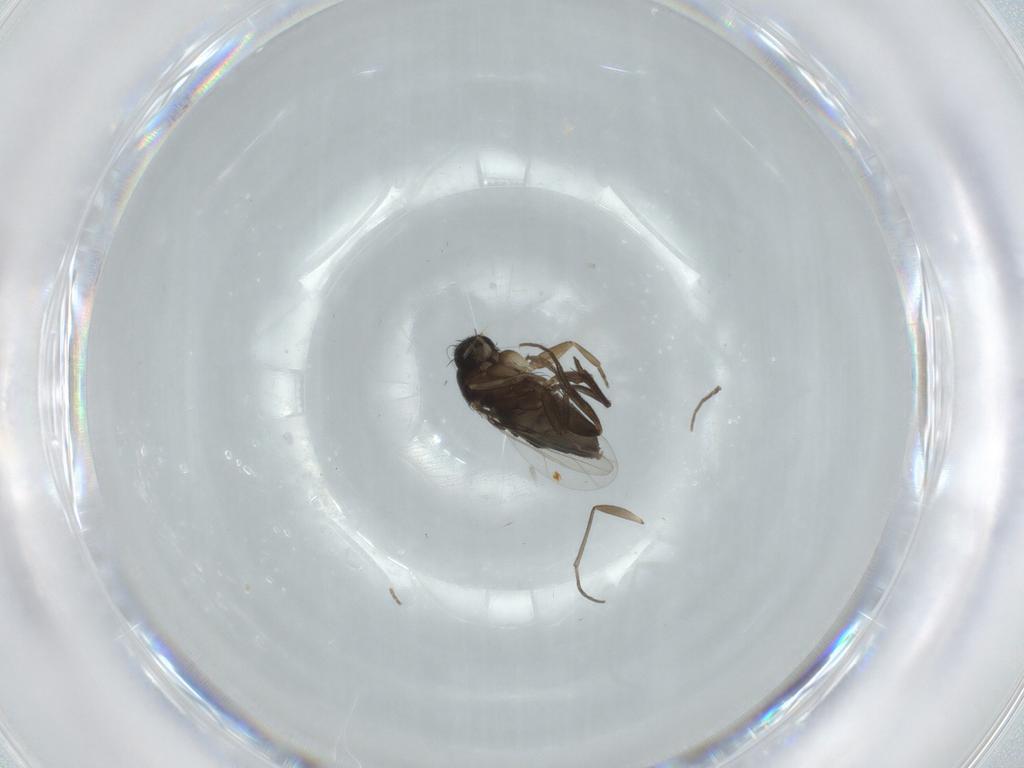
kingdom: Animalia
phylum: Arthropoda
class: Insecta
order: Diptera
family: Phoridae
